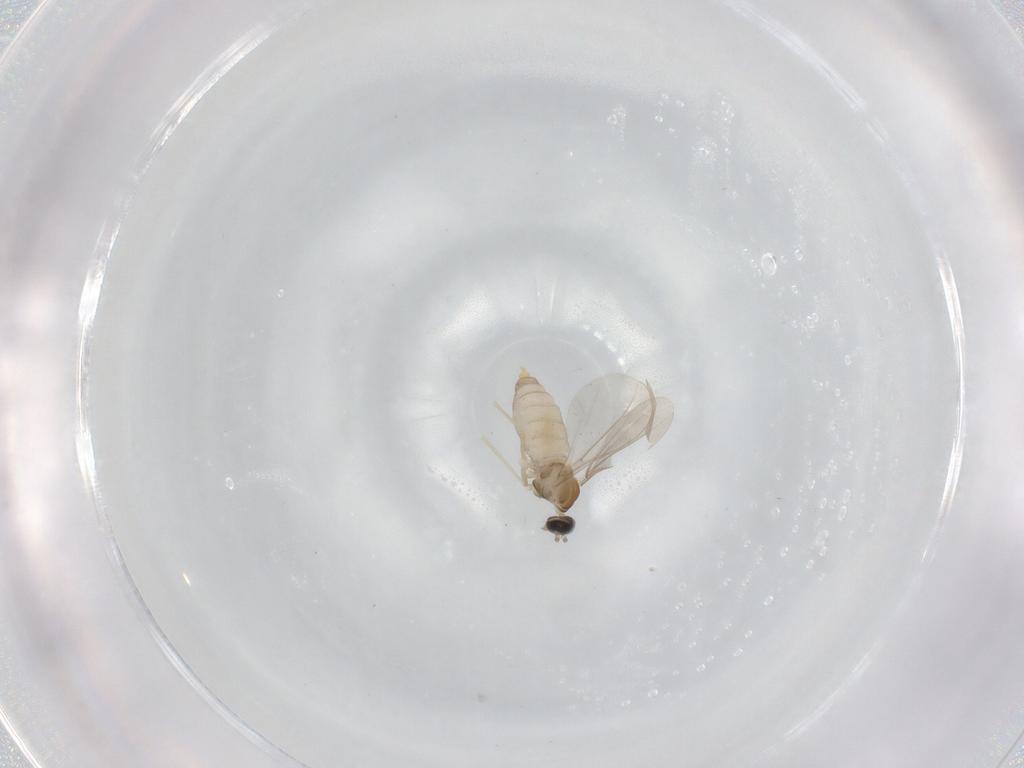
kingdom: Animalia
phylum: Arthropoda
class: Insecta
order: Diptera
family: Cecidomyiidae
